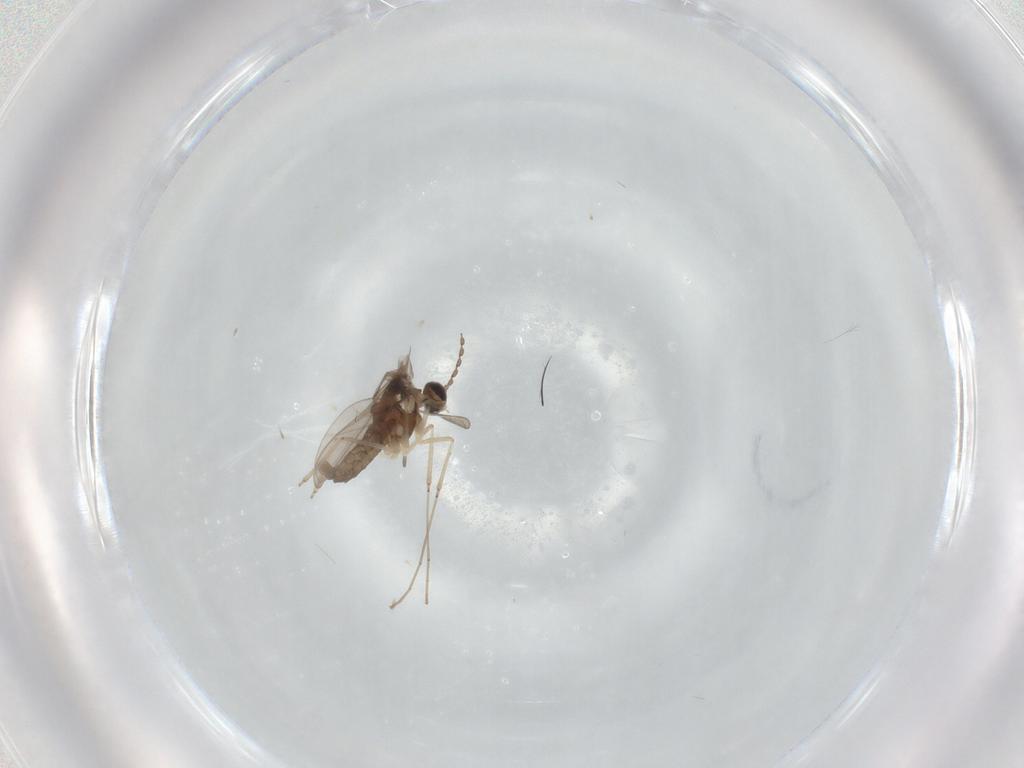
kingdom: Animalia
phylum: Arthropoda
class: Insecta
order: Diptera
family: Cecidomyiidae
